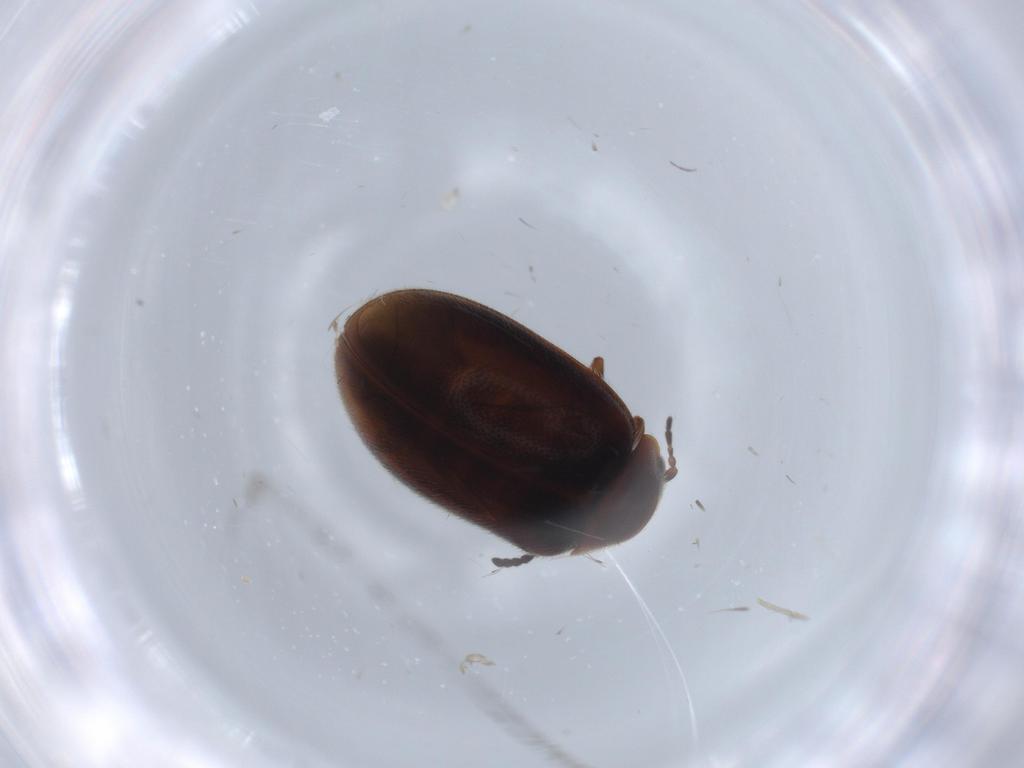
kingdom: Animalia
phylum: Arthropoda
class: Insecta
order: Coleoptera
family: Scirtidae
